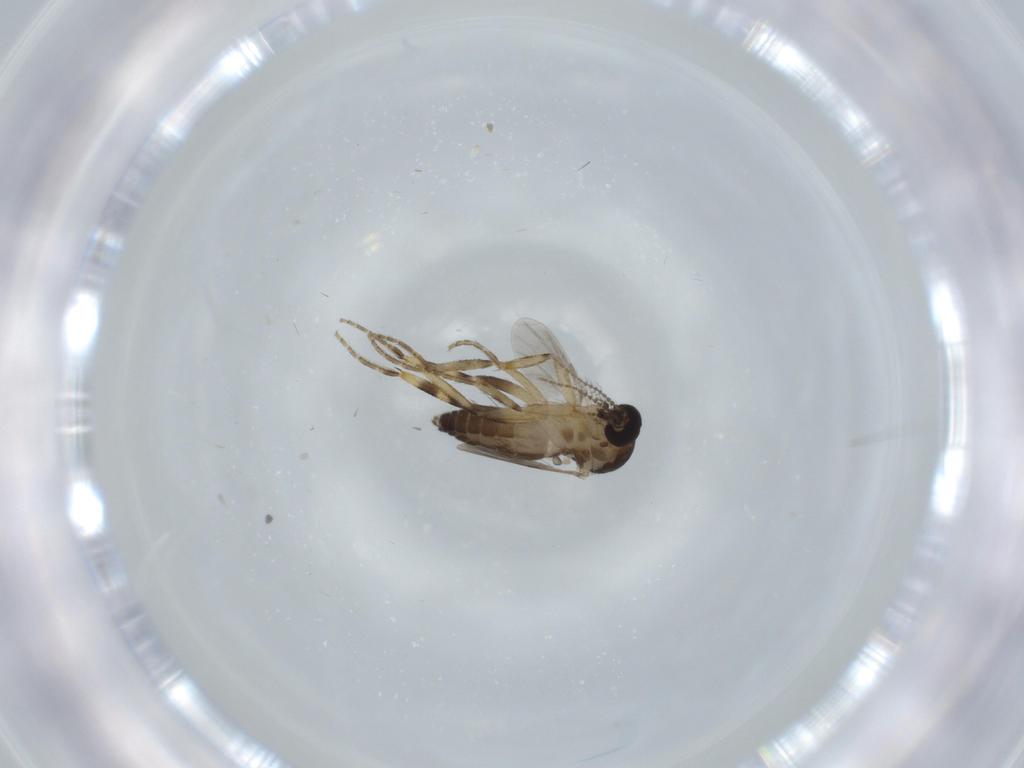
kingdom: Animalia
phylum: Arthropoda
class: Insecta
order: Diptera
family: Ceratopogonidae
